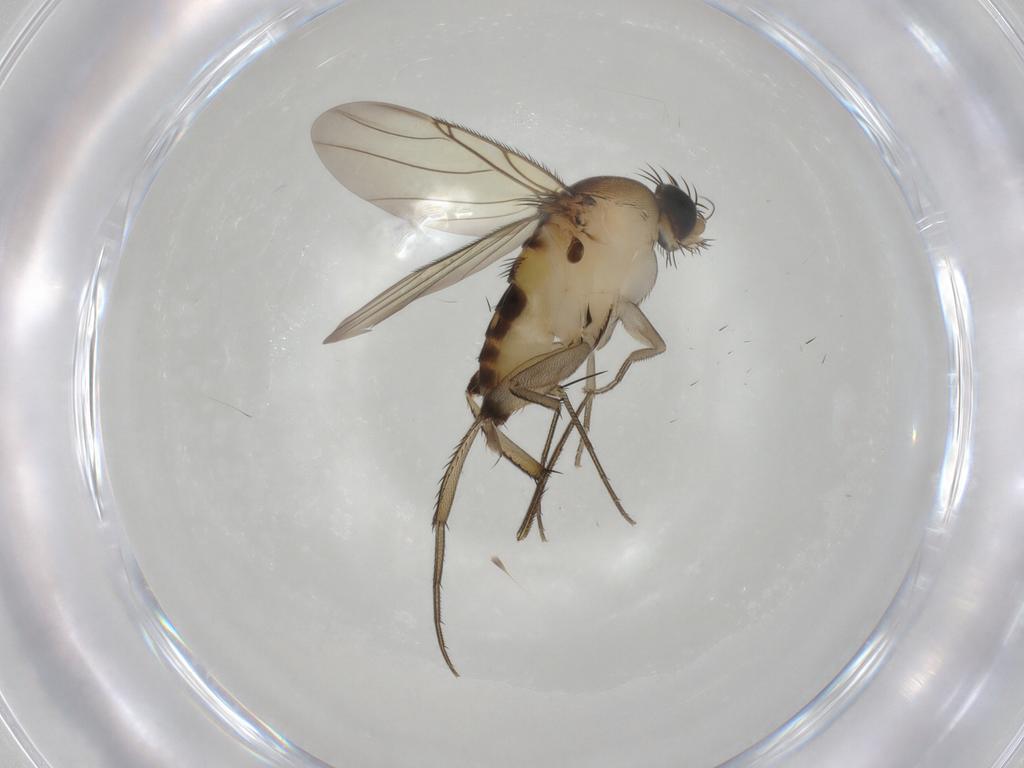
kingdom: Animalia
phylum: Arthropoda
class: Insecta
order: Diptera
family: Phoridae
